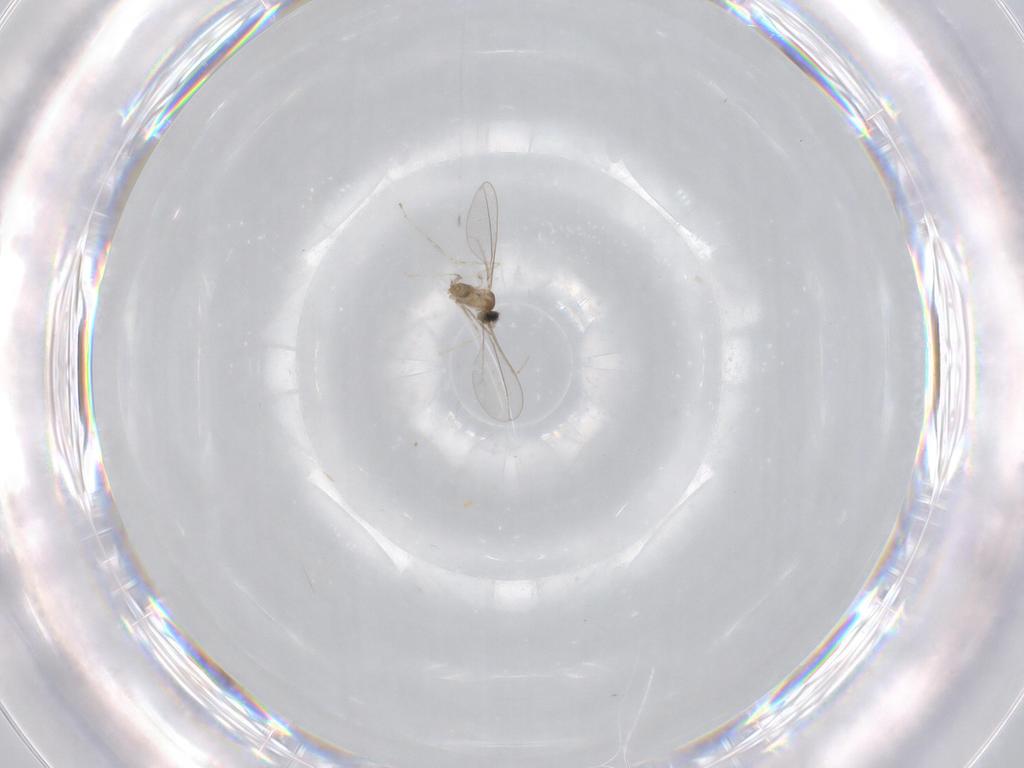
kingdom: Animalia
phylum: Arthropoda
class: Insecta
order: Diptera
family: Cecidomyiidae
